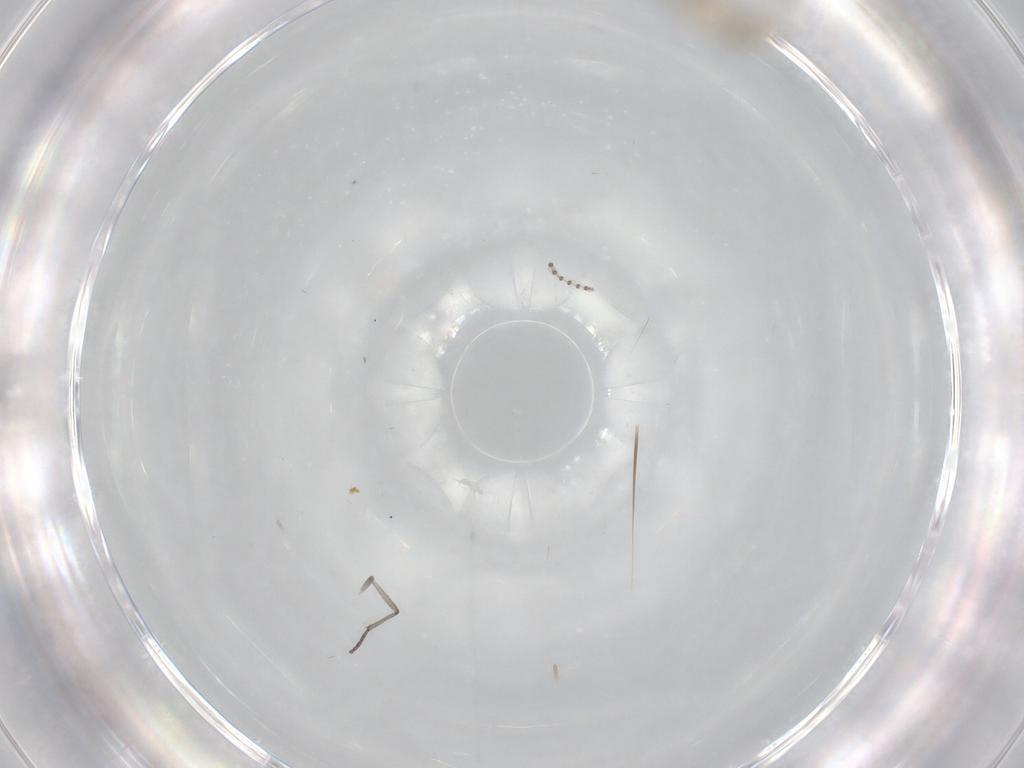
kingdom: Animalia
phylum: Arthropoda
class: Insecta
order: Diptera
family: Cecidomyiidae
